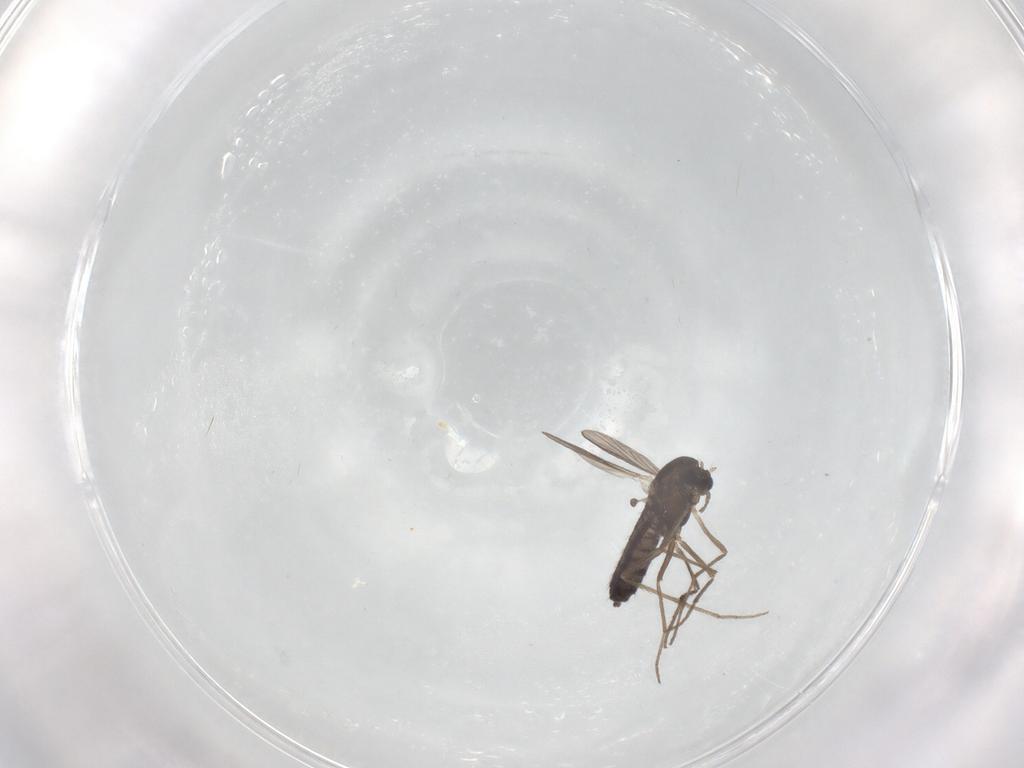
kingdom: Animalia
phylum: Arthropoda
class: Insecta
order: Diptera
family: Chironomidae
